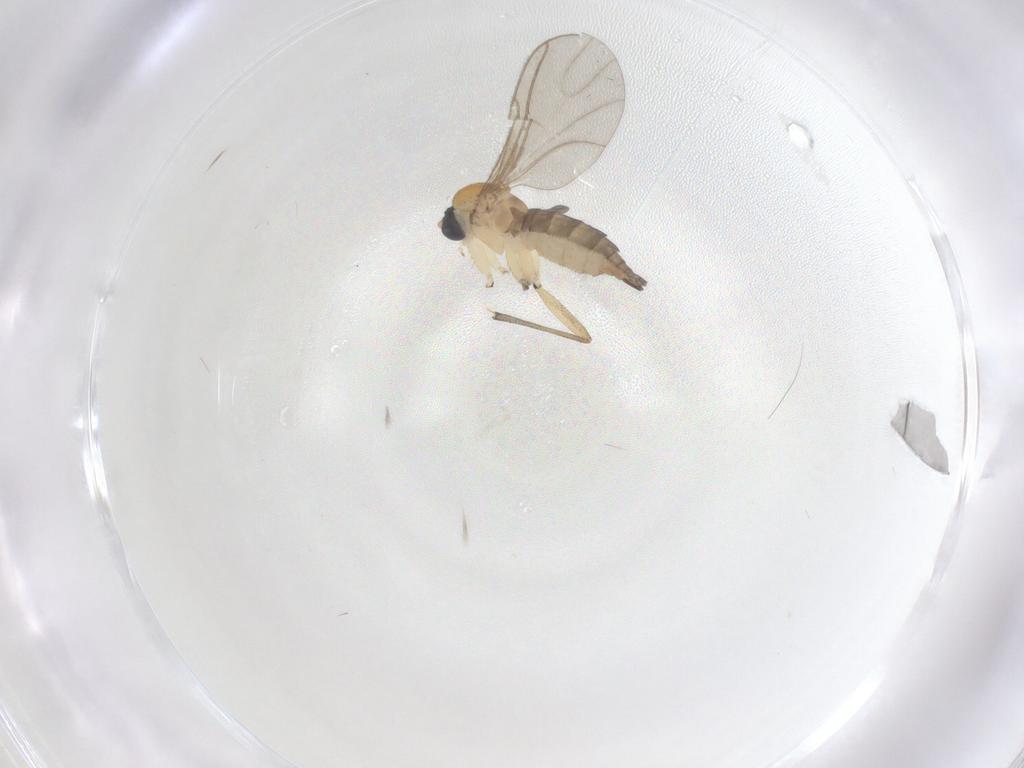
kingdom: Animalia
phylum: Arthropoda
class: Insecta
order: Diptera
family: Sciaridae
